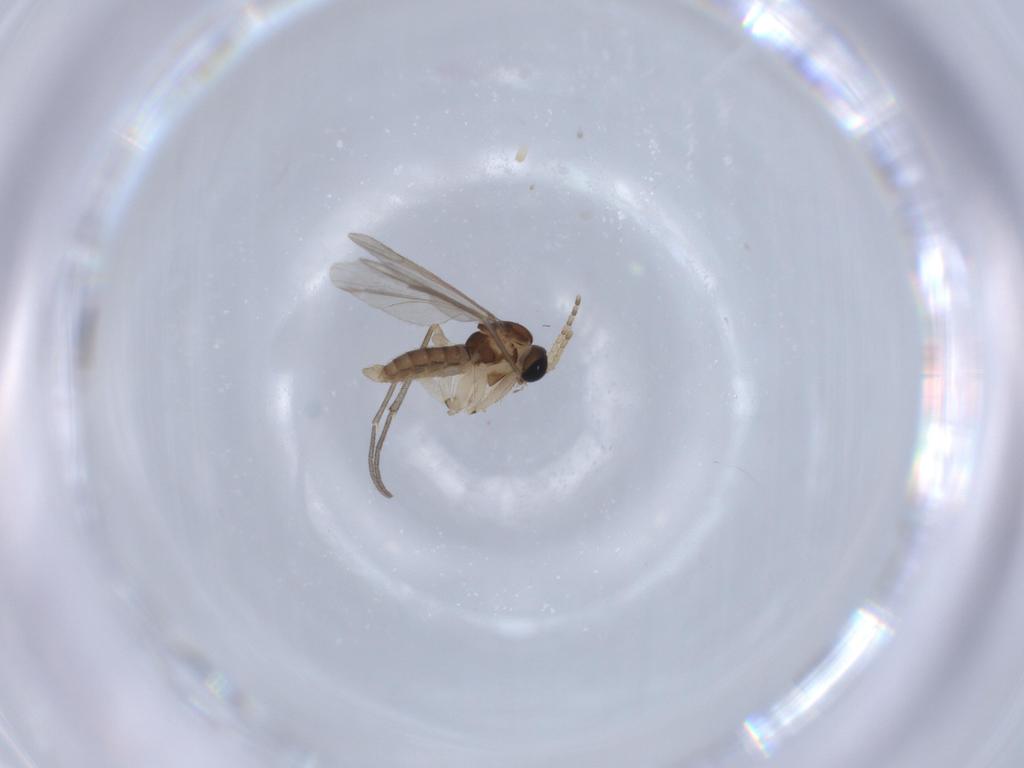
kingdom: Animalia
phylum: Arthropoda
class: Insecta
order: Diptera
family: Sciaridae
